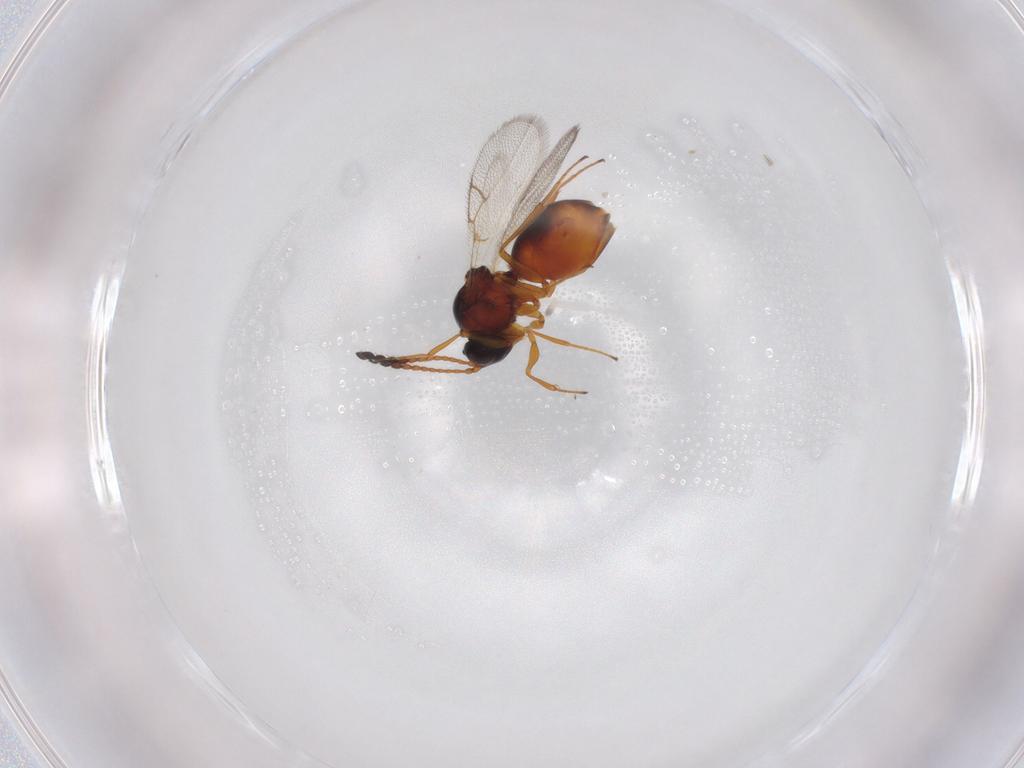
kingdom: Animalia
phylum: Arthropoda
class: Insecta
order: Hymenoptera
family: Figitidae
